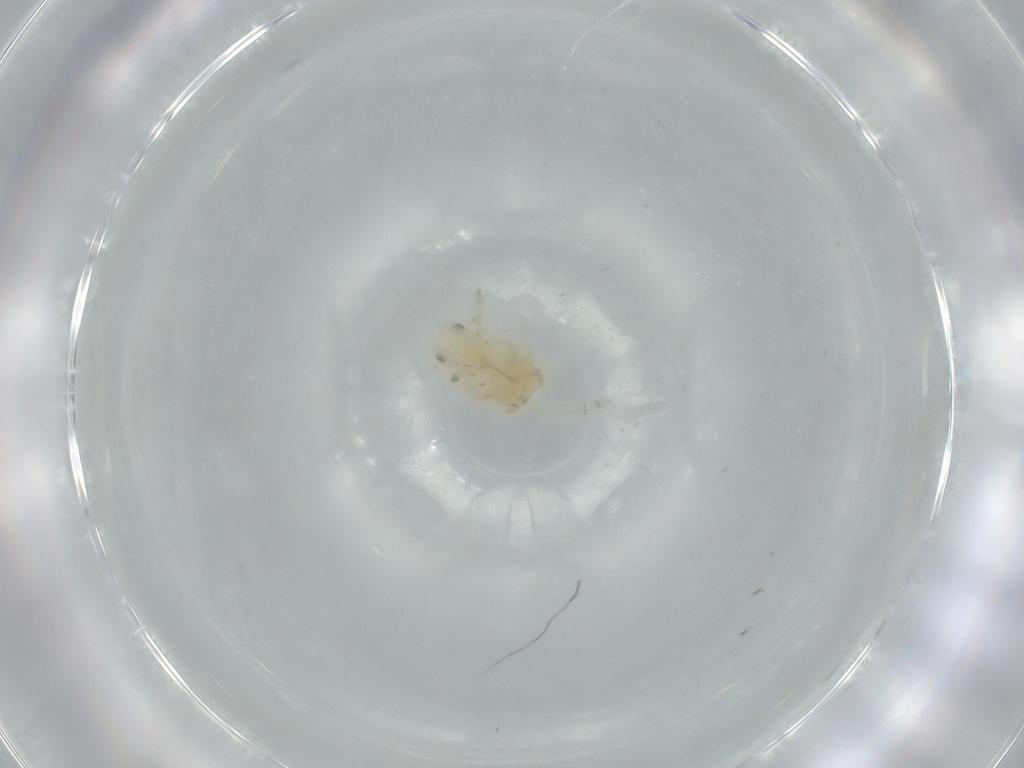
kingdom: Animalia
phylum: Arthropoda
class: Insecta
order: Hemiptera
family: Flatidae
